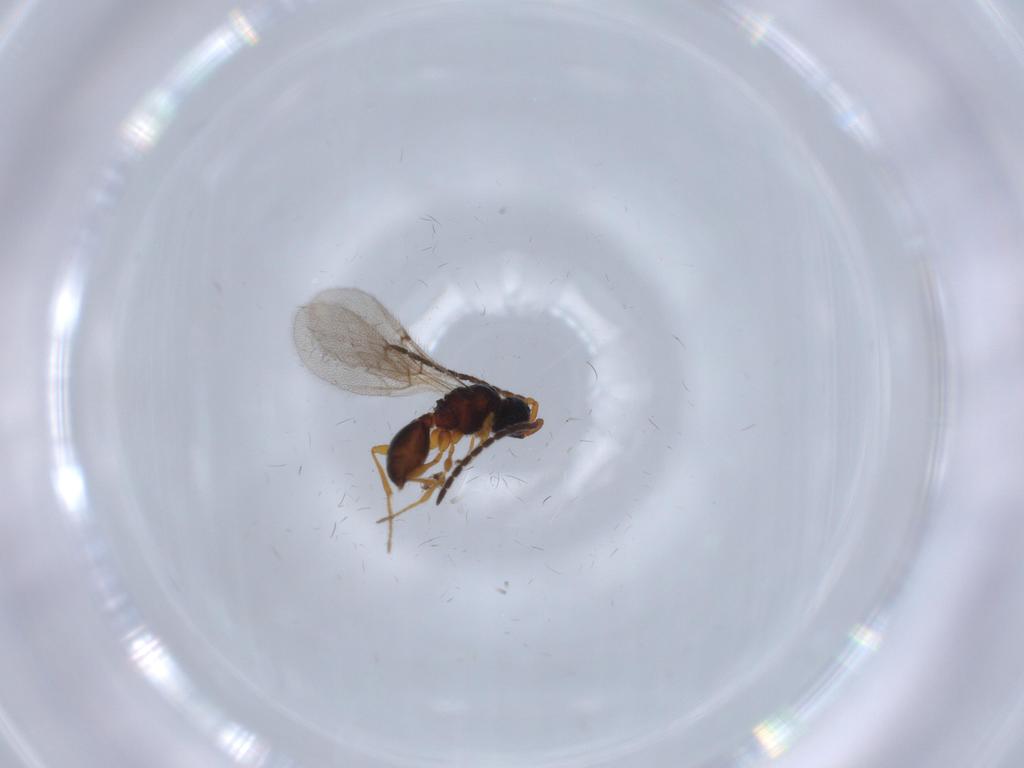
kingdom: Animalia
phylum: Arthropoda
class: Insecta
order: Hymenoptera
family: Diapriidae
